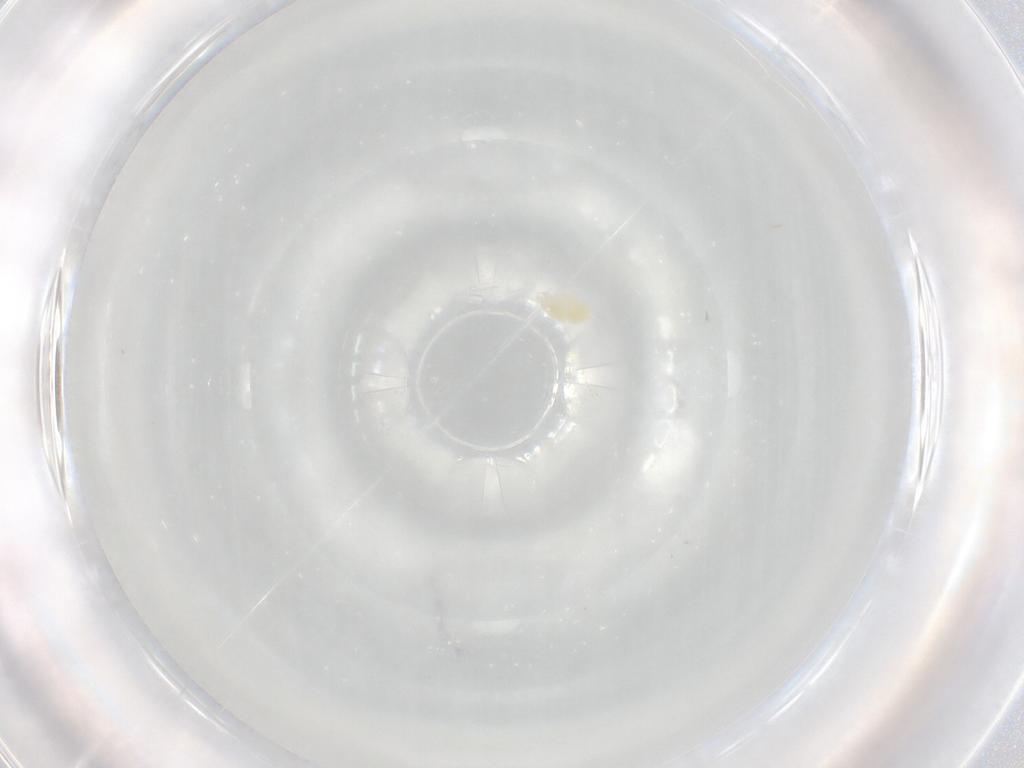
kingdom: Animalia
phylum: Arthropoda
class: Arachnida
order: Trombidiformes
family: Eupodidae
